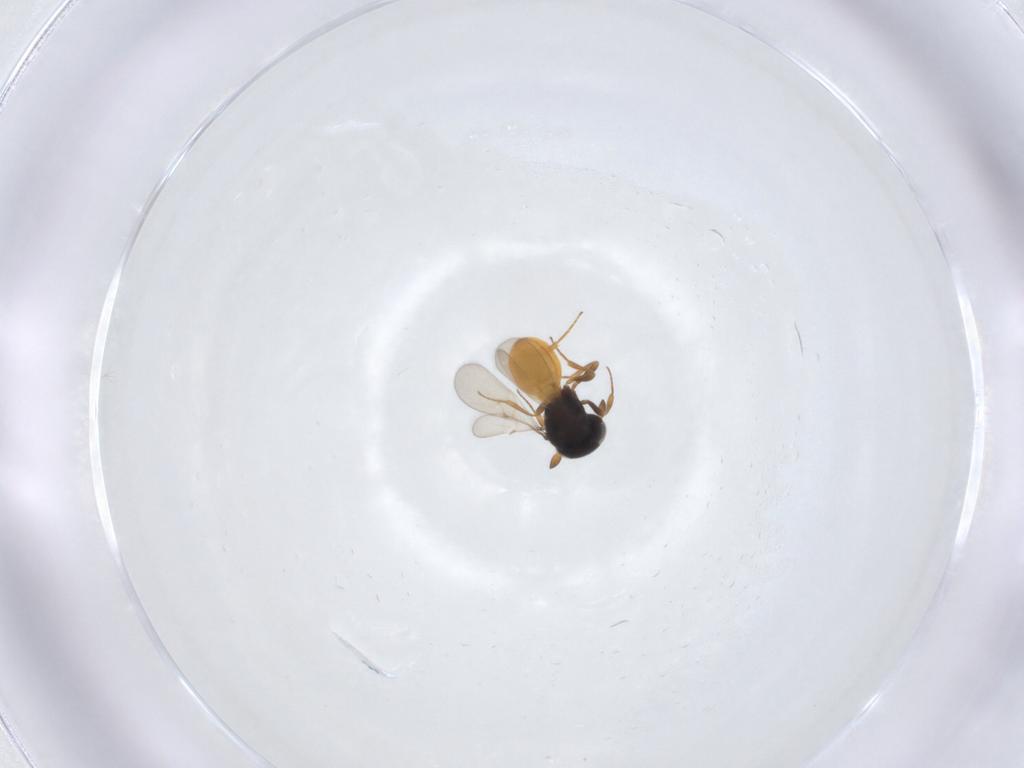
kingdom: Animalia
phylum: Arthropoda
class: Insecta
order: Hymenoptera
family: Scelionidae
